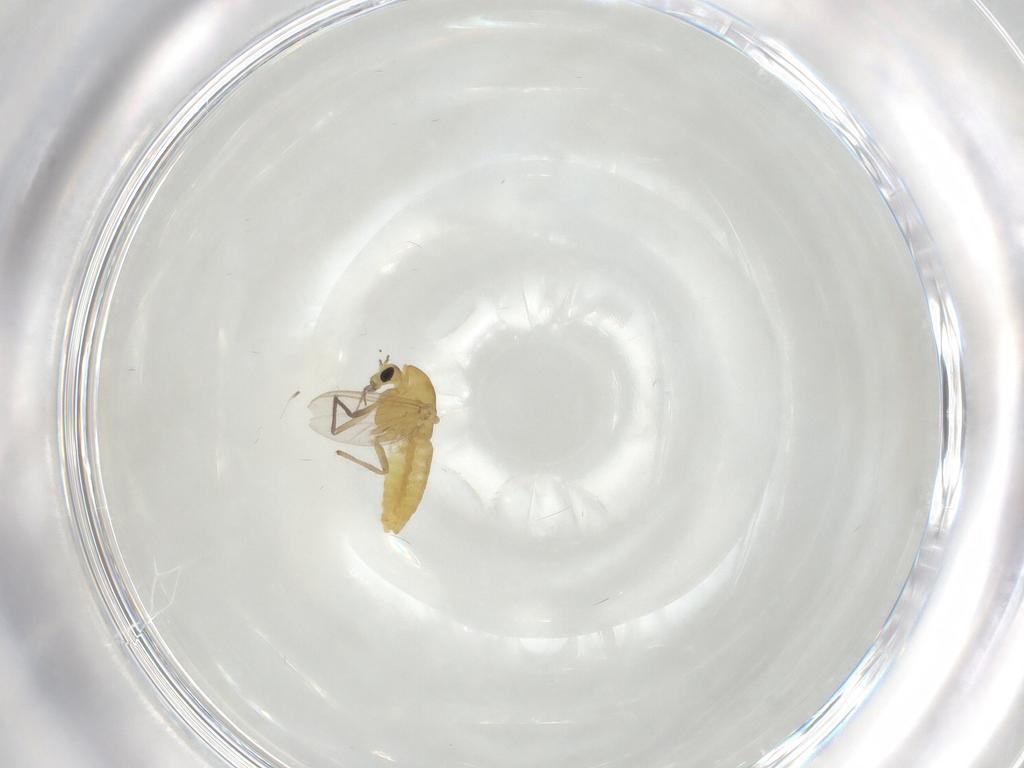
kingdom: Animalia
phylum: Arthropoda
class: Insecta
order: Diptera
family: Chironomidae
